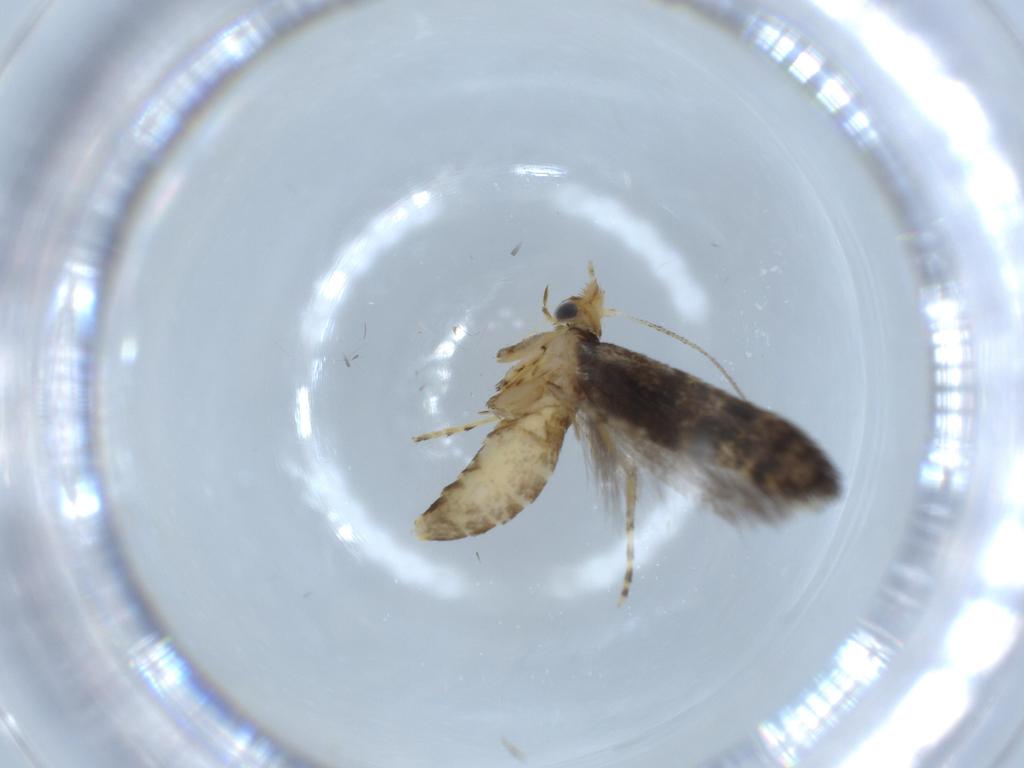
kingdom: Animalia
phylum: Arthropoda
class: Insecta
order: Lepidoptera
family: Argyresthiidae
